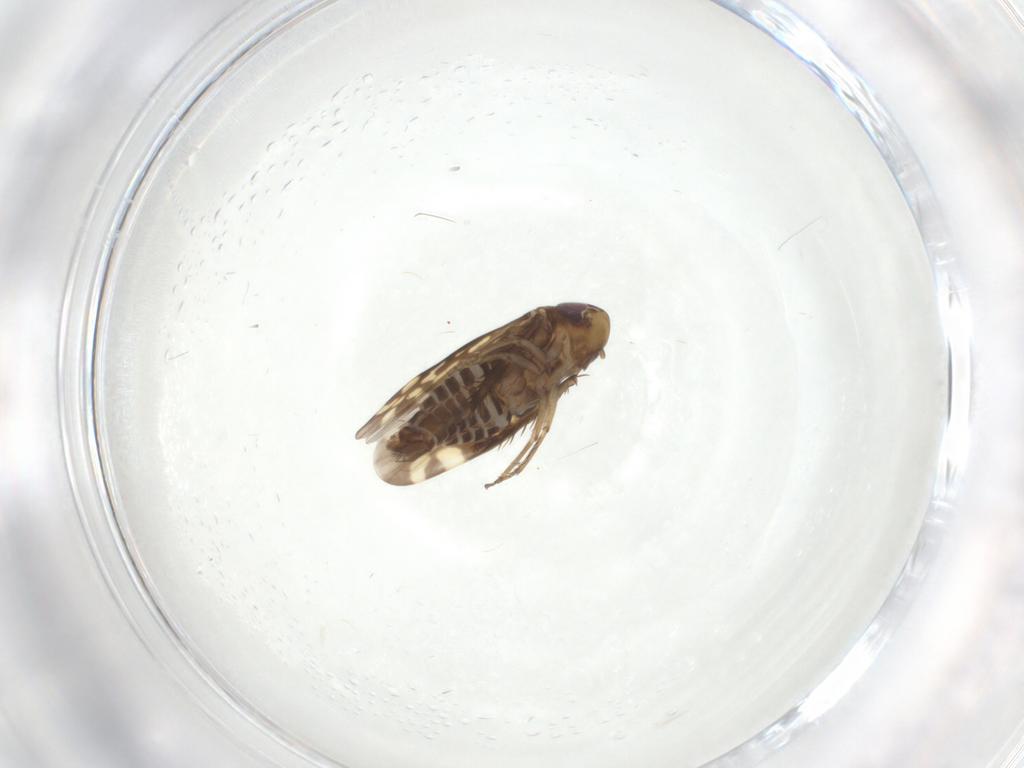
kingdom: Animalia
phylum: Arthropoda
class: Insecta
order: Hemiptera
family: Cicadellidae
